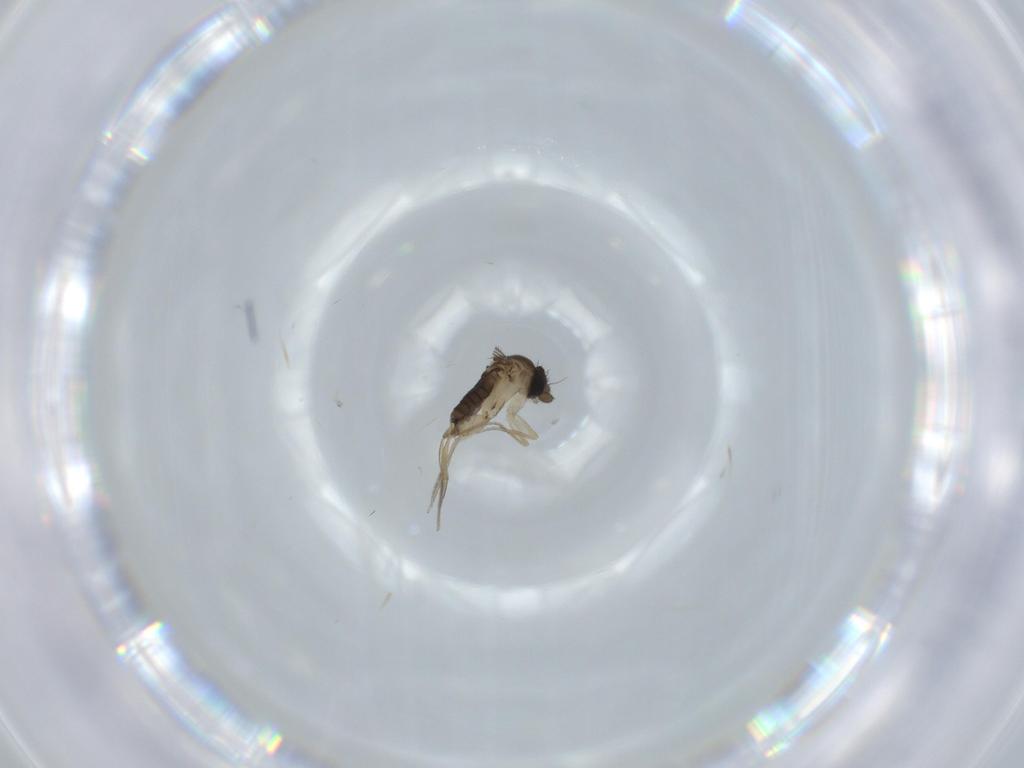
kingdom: Animalia
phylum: Arthropoda
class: Insecta
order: Diptera
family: Phoridae
